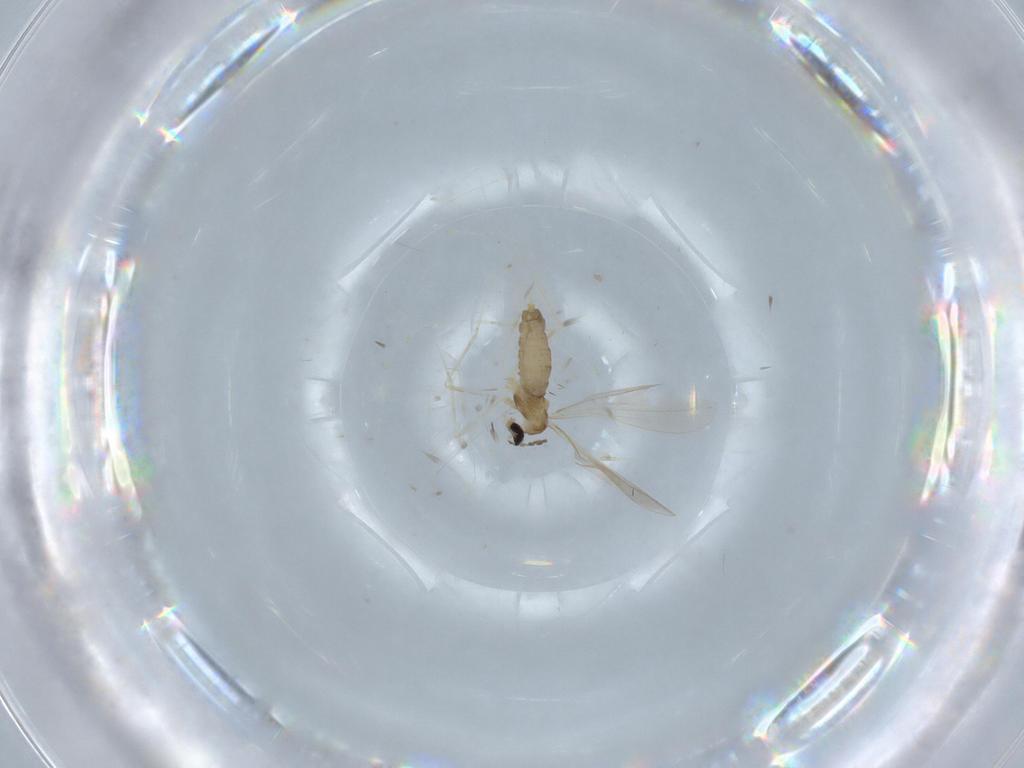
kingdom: Animalia
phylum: Arthropoda
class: Insecta
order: Diptera
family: Cecidomyiidae
